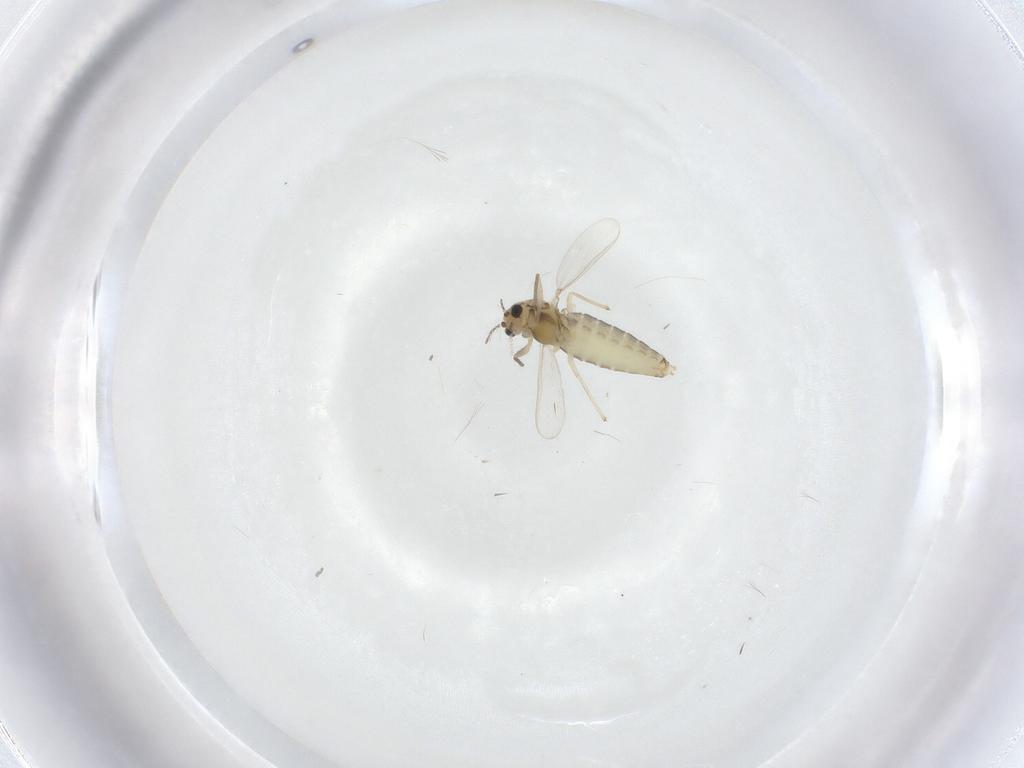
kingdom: Animalia
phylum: Arthropoda
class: Insecta
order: Diptera
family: Chironomidae
